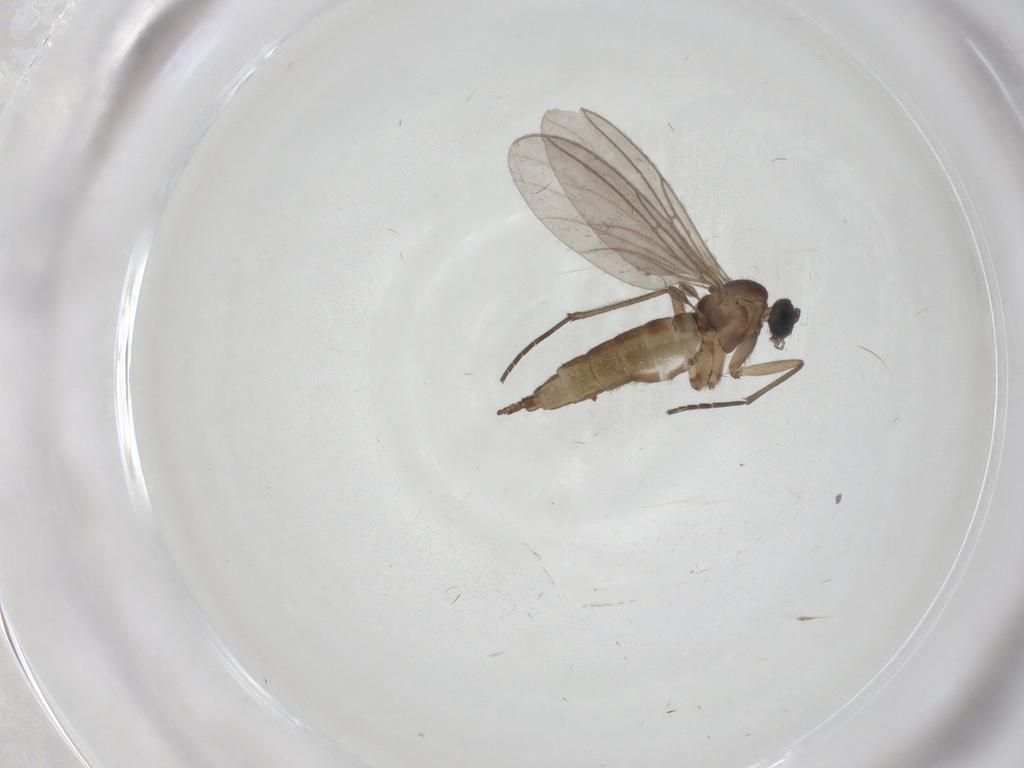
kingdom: Animalia
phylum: Arthropoda
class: Insecta
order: Diptera
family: Sciaridae
